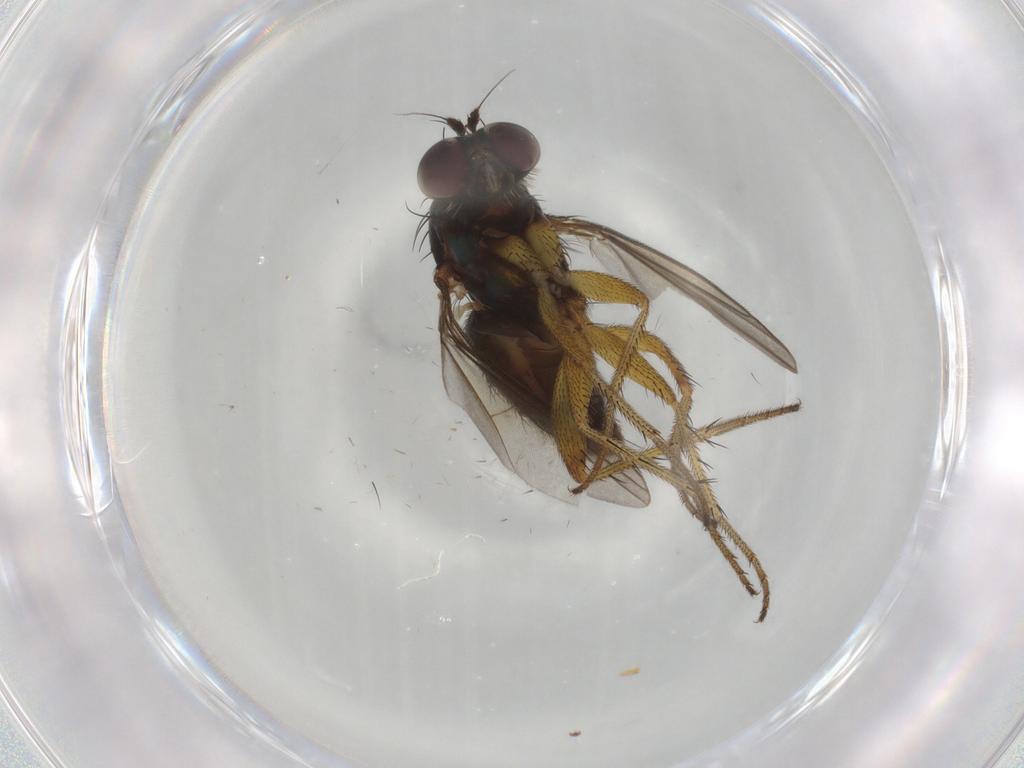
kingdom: Animalia
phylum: Arthropoda
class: Insecta
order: Diptera
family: Dolichopodidae
